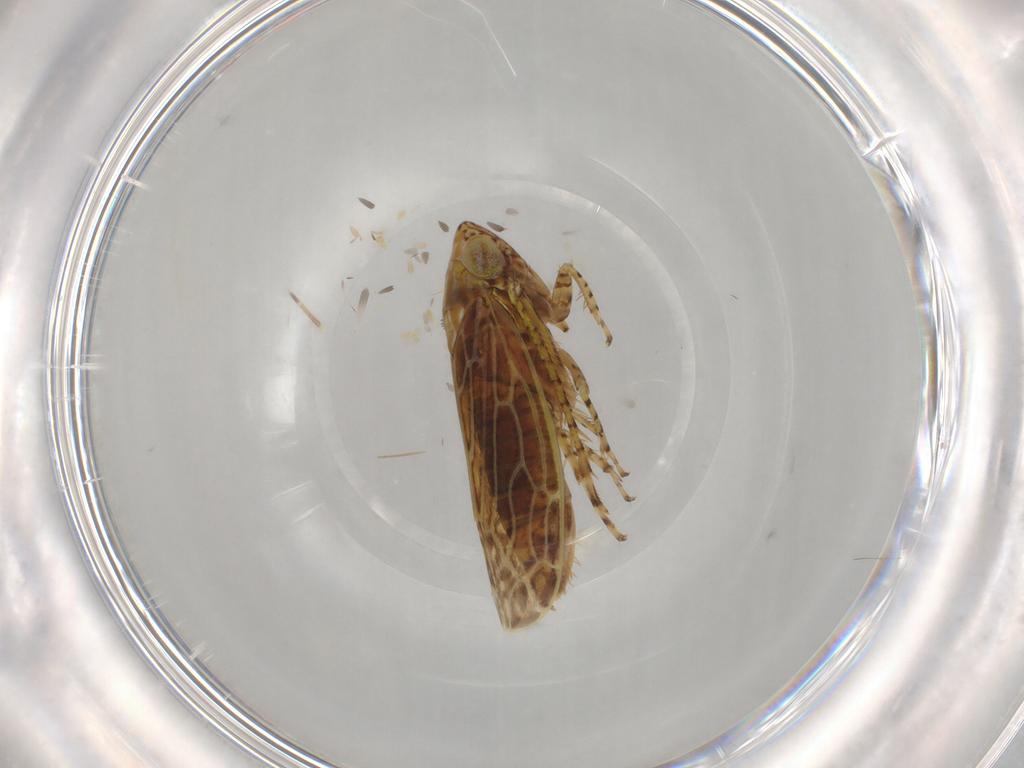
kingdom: Animalia
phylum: Arthropoda
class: Insecta
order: Hemiptera
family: Cicadellidae
